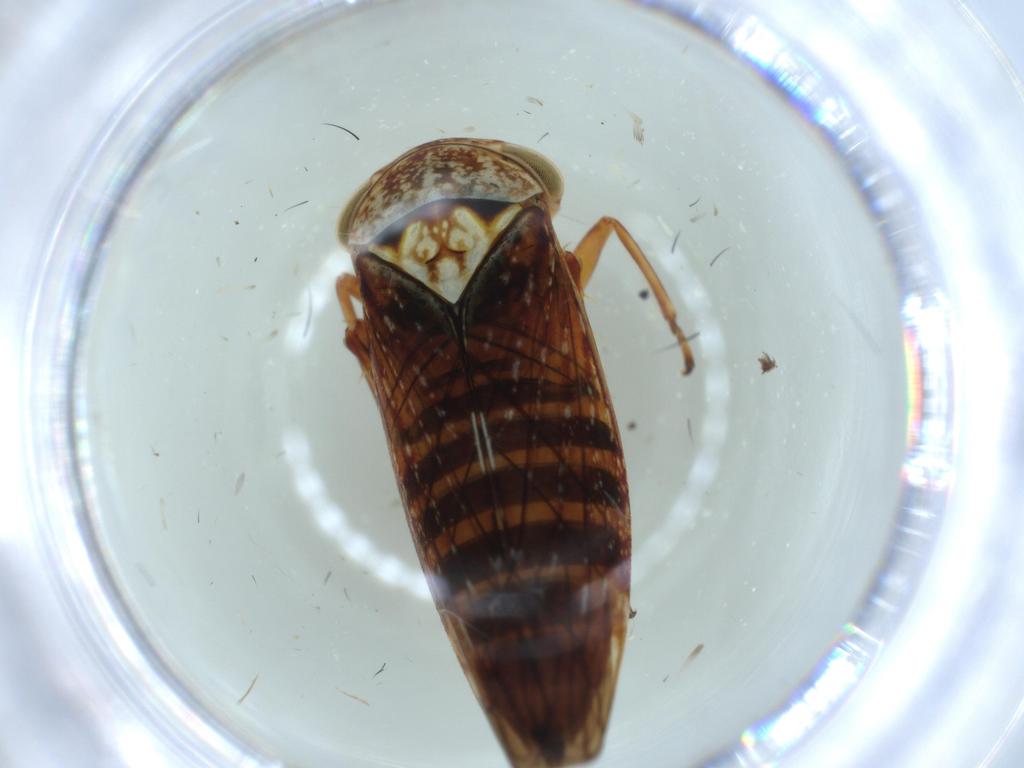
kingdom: Animalia
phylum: Arthropoda
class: Insecta
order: Hemiptera
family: Cicadellidae
